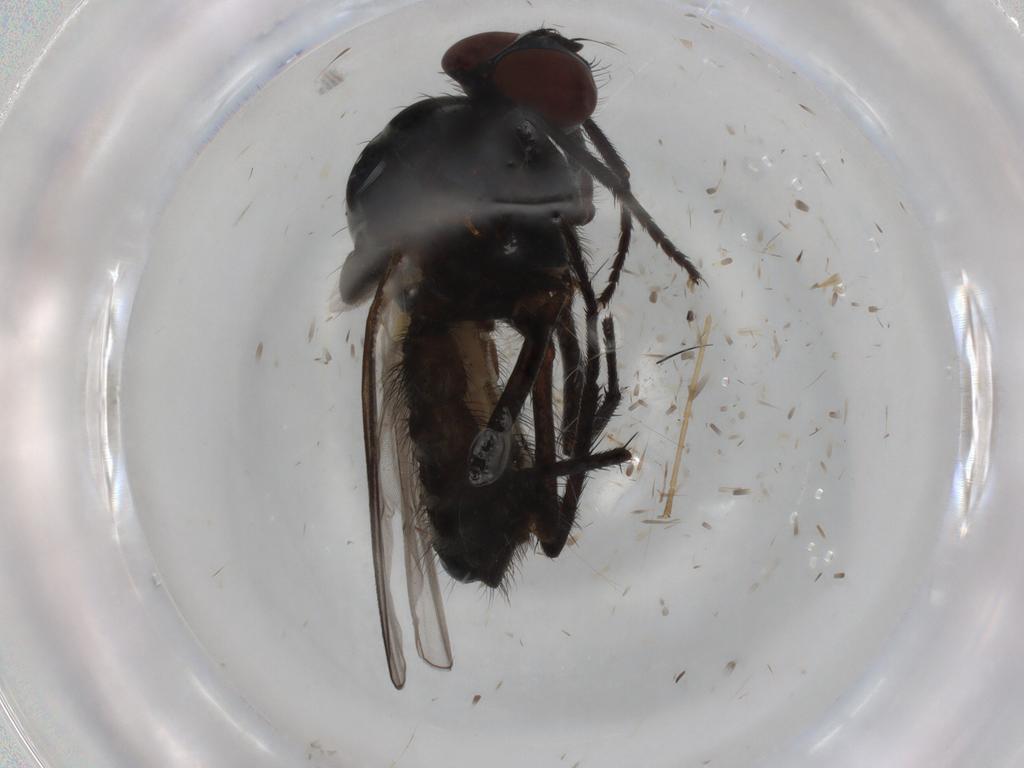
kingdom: Animalia
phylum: Arthropoda
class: Insecta
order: Diptera
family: Anthomyiidae
